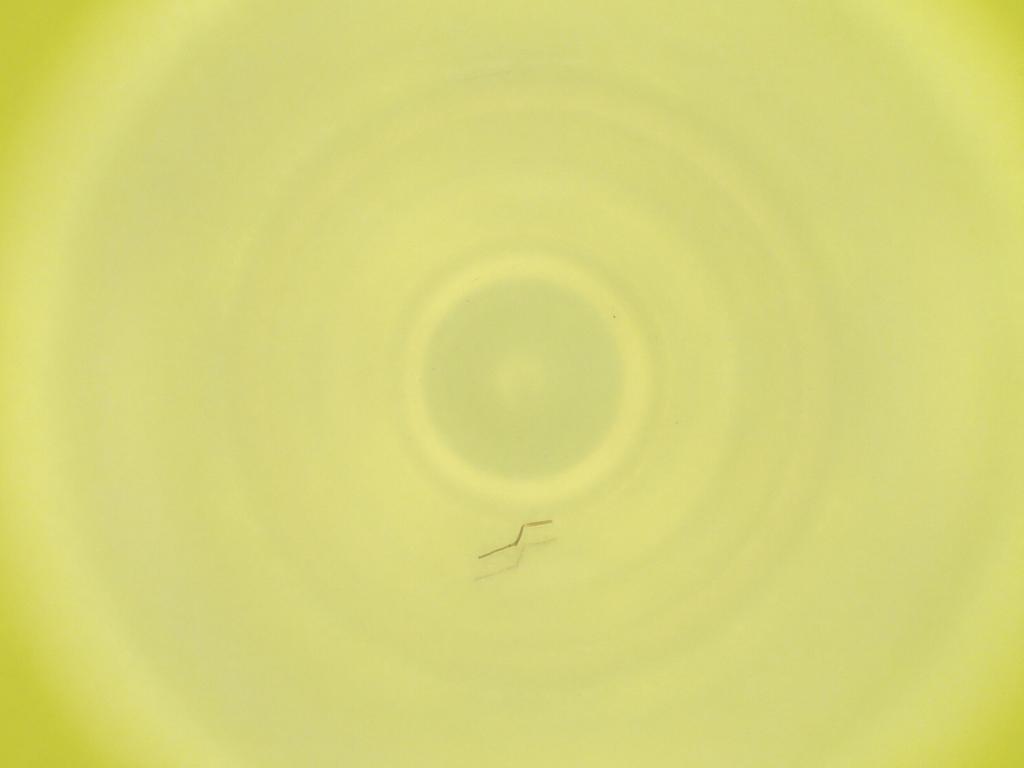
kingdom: Animalia
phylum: Arthropoda
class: Insecta
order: Diptera
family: Cecidomyiidae
